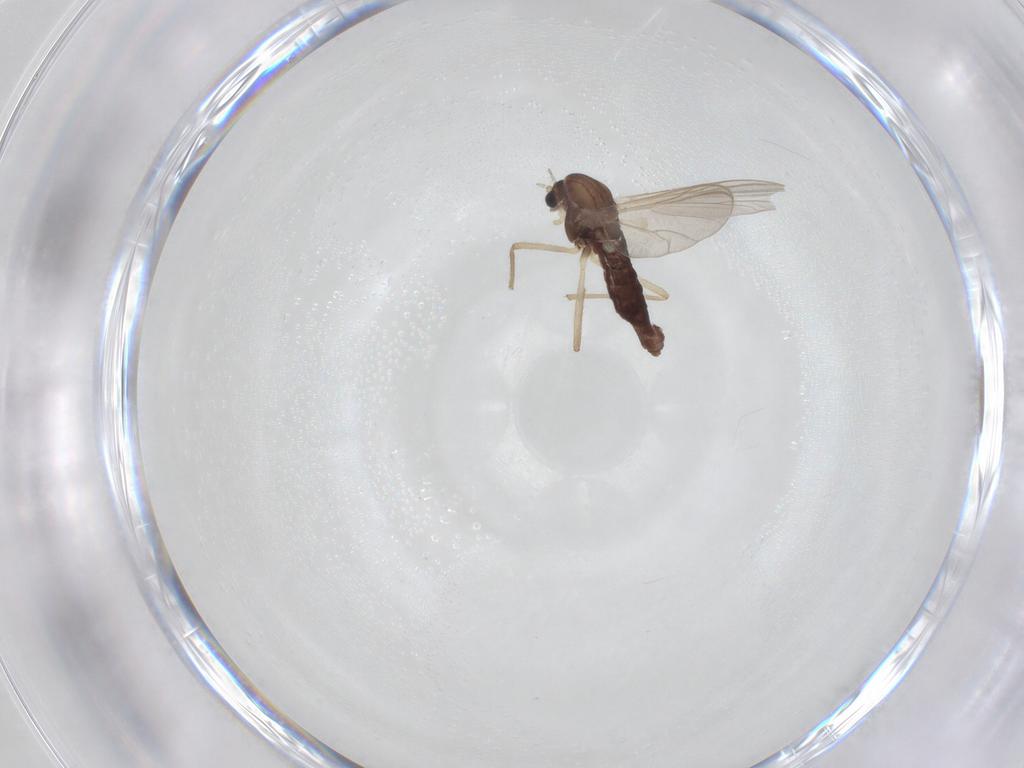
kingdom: Animalia
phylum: Arthropoda
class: Insecta
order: Diptera
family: Chironomidae
